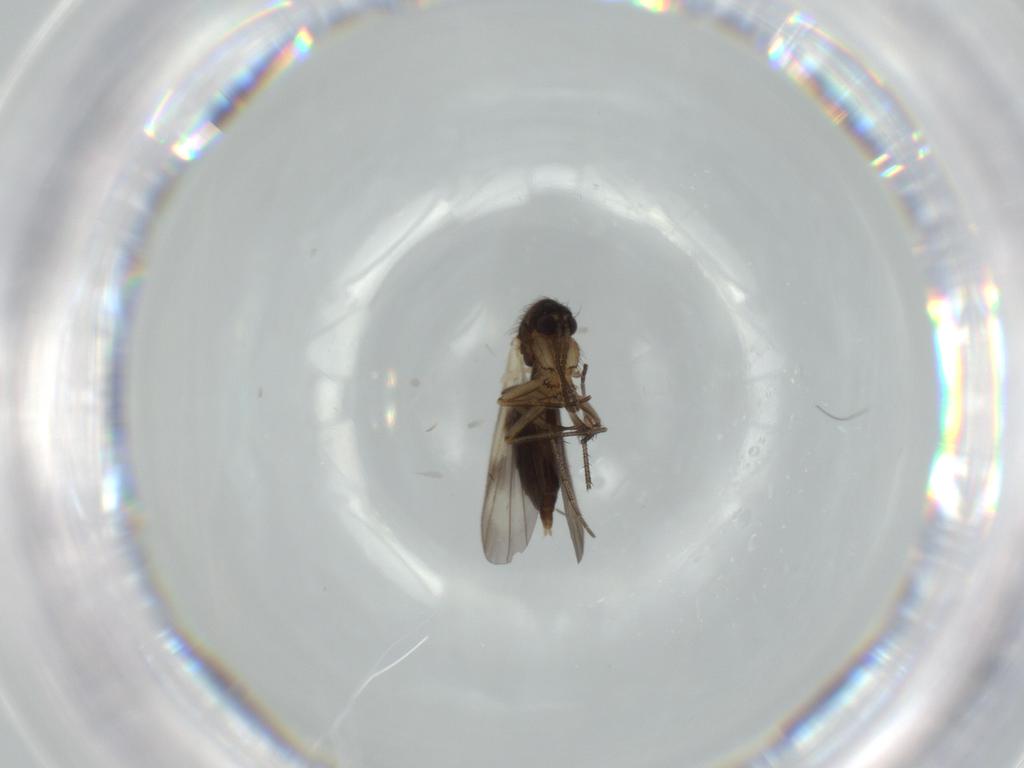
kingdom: Animalia
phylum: Arthropoda
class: Insecta
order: Diptera
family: Mycetophilidae
